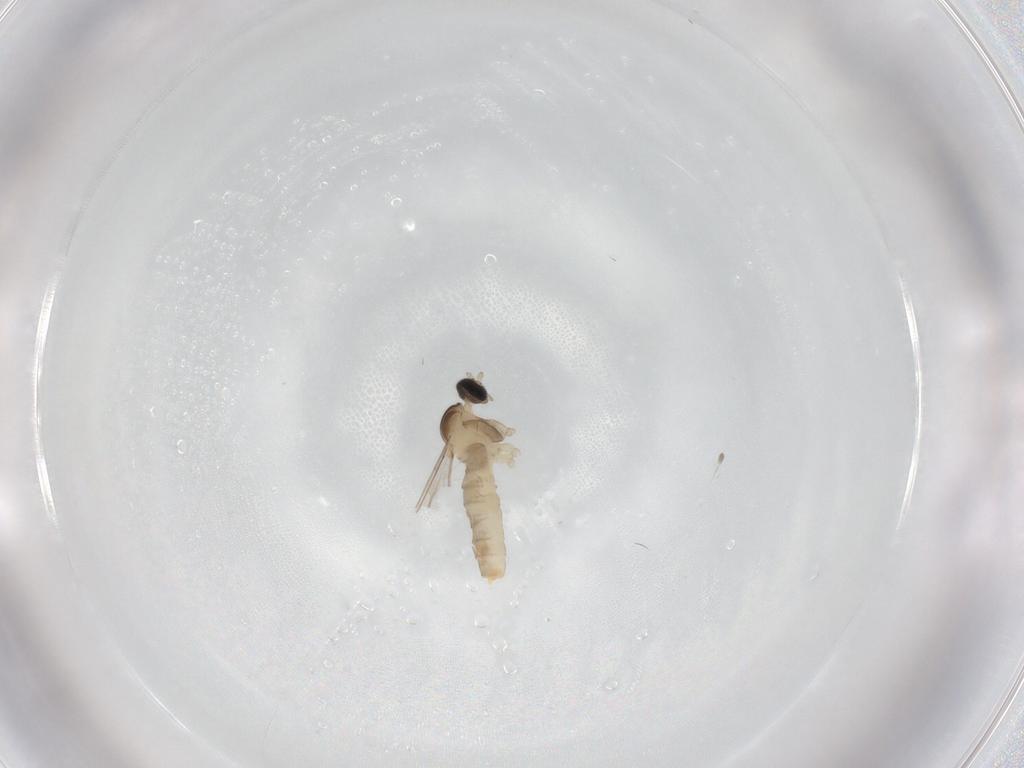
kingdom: Animalia
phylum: Arthropoda
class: Insecta
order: Diptera
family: Cecidomyiidae
